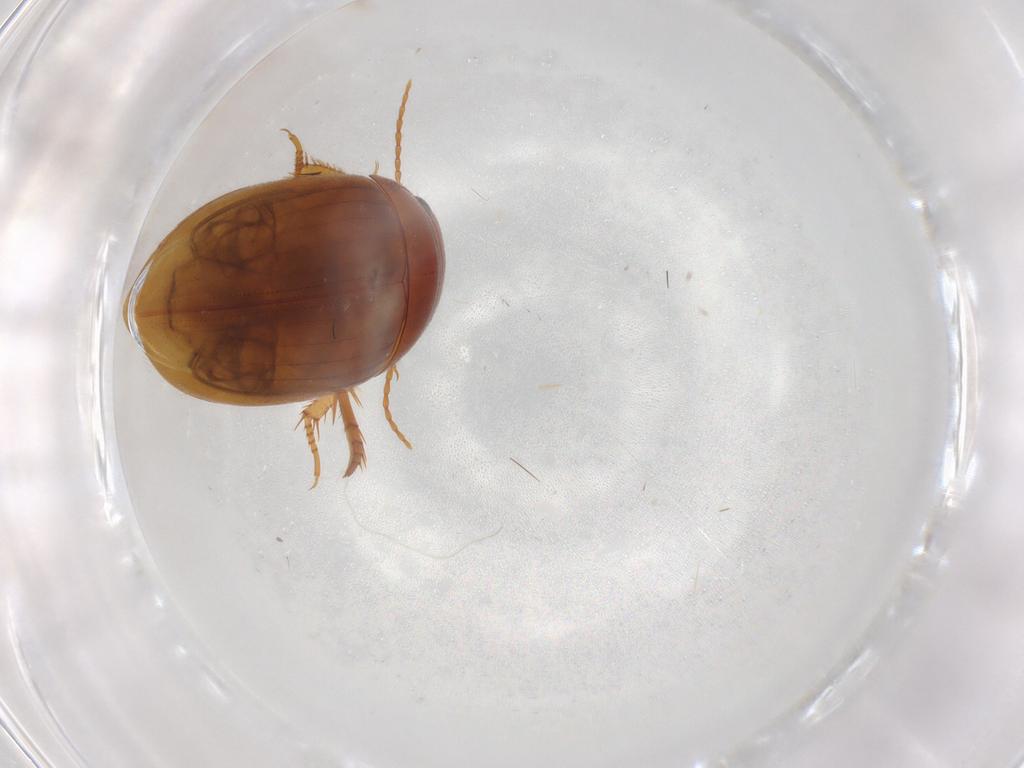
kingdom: Animalia
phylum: Arthropoda
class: Insecta
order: Coleoptera
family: Dytiscidae
